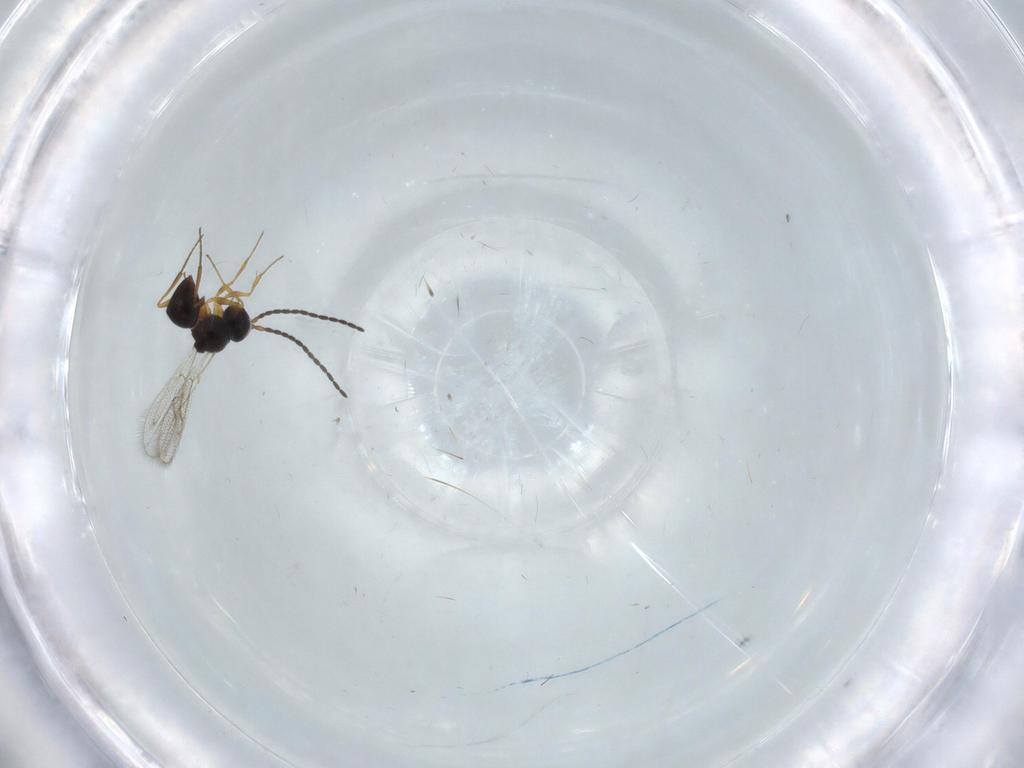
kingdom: Animalia
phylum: Arthropoda
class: Insecta
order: Hymenoptera
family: Figitidae
